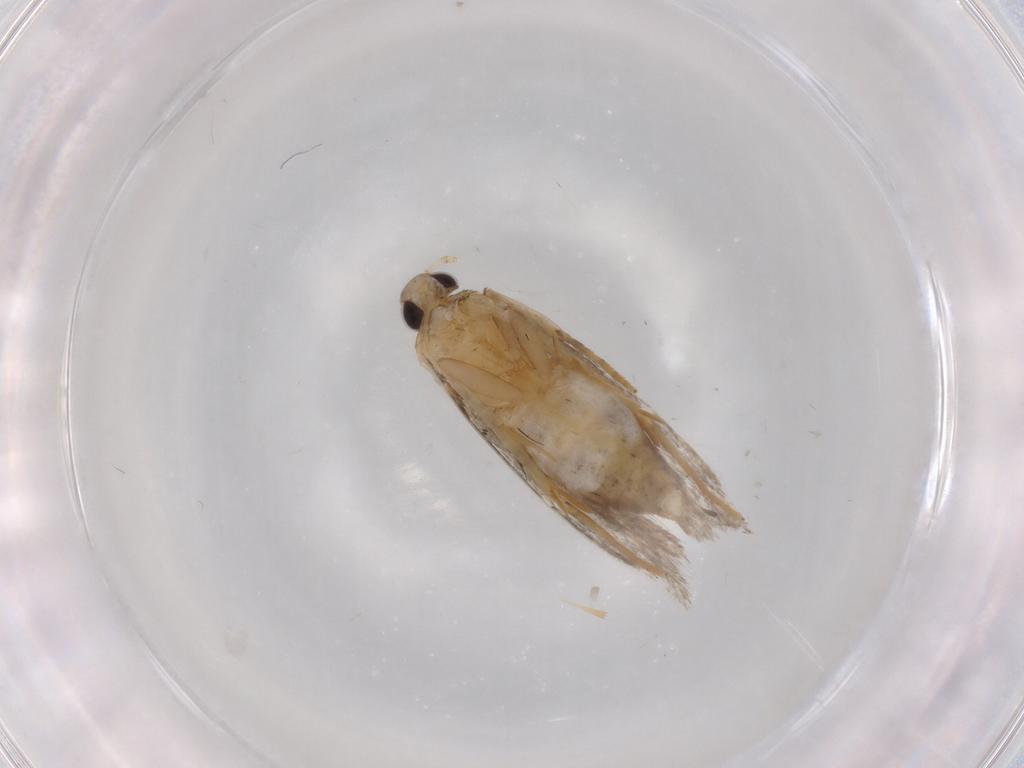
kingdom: Animalia
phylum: Arthropoda
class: Insecta
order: Lepidoptera
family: Autostichidae
